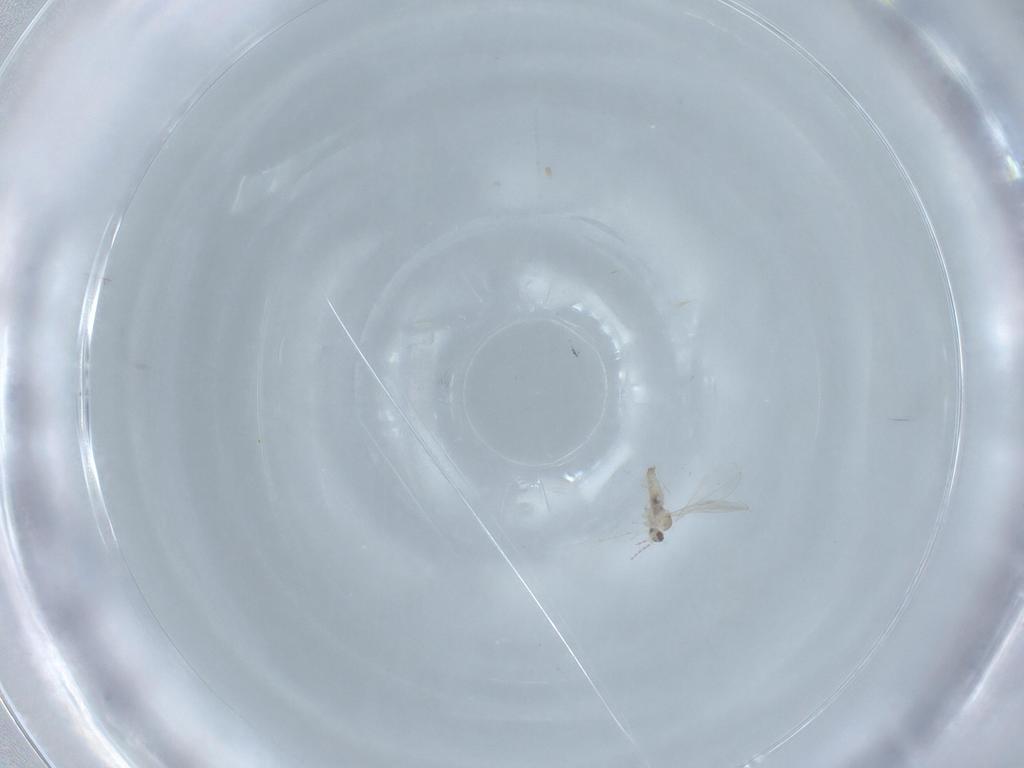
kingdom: Animalia
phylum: Arthropoda
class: Insecta
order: Diptera
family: Cecidomyiidae
